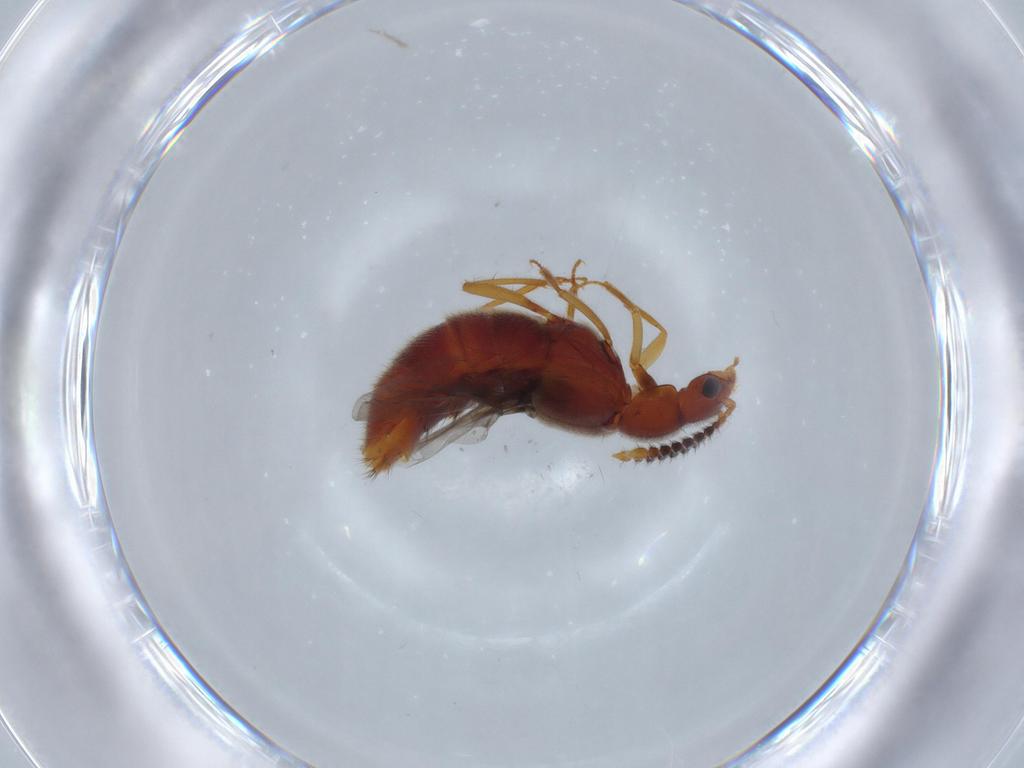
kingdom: Animalia
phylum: Arthropoda
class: Insecta
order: Coleoptera
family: Staphylinidae
